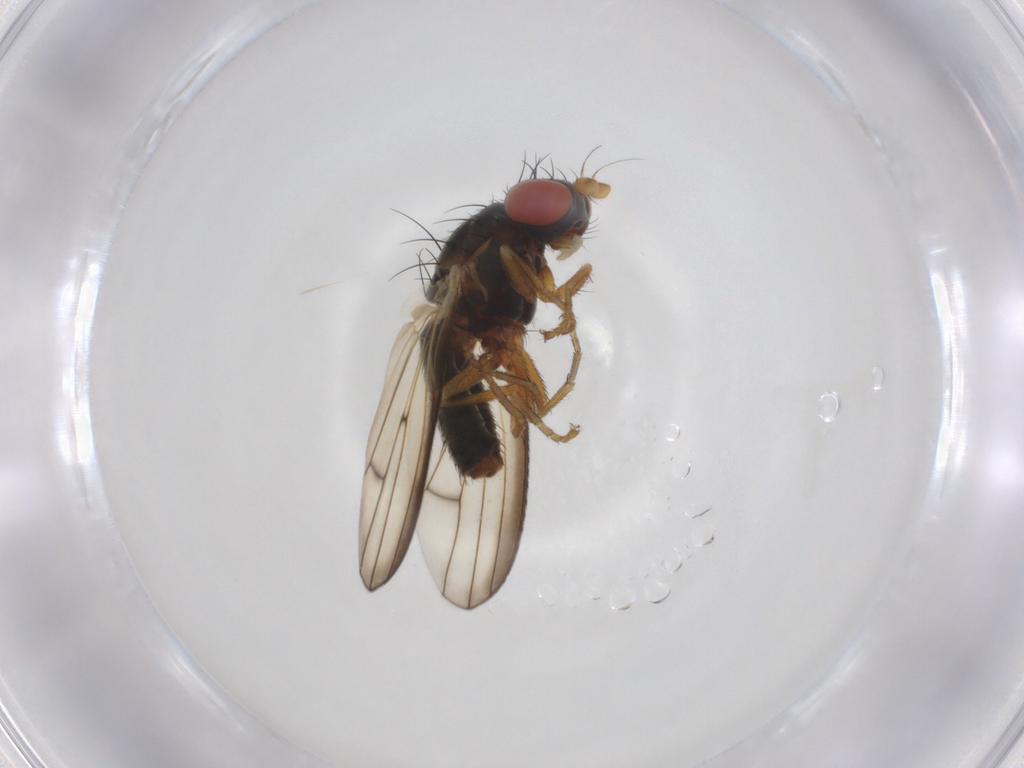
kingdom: Animalia
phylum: Arthropoda
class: Insecta
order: Diptera
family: Chamaemyiidae
